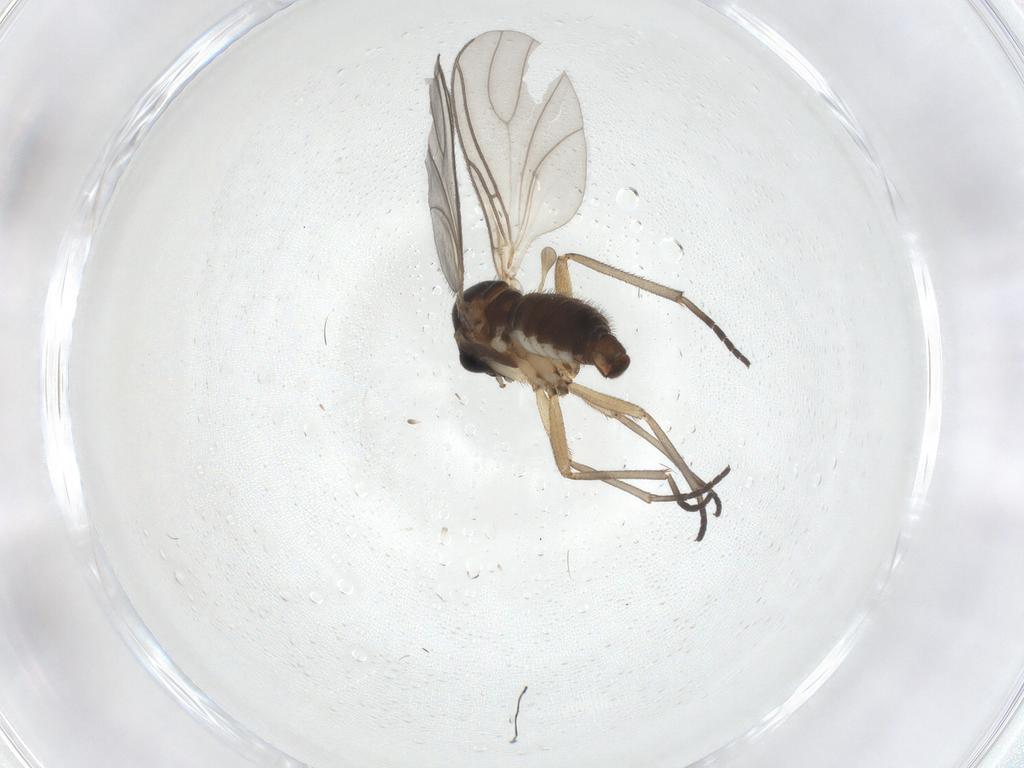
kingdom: Animalia
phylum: Arthropoda
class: Insecta
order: Diptera
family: Sciaridae
